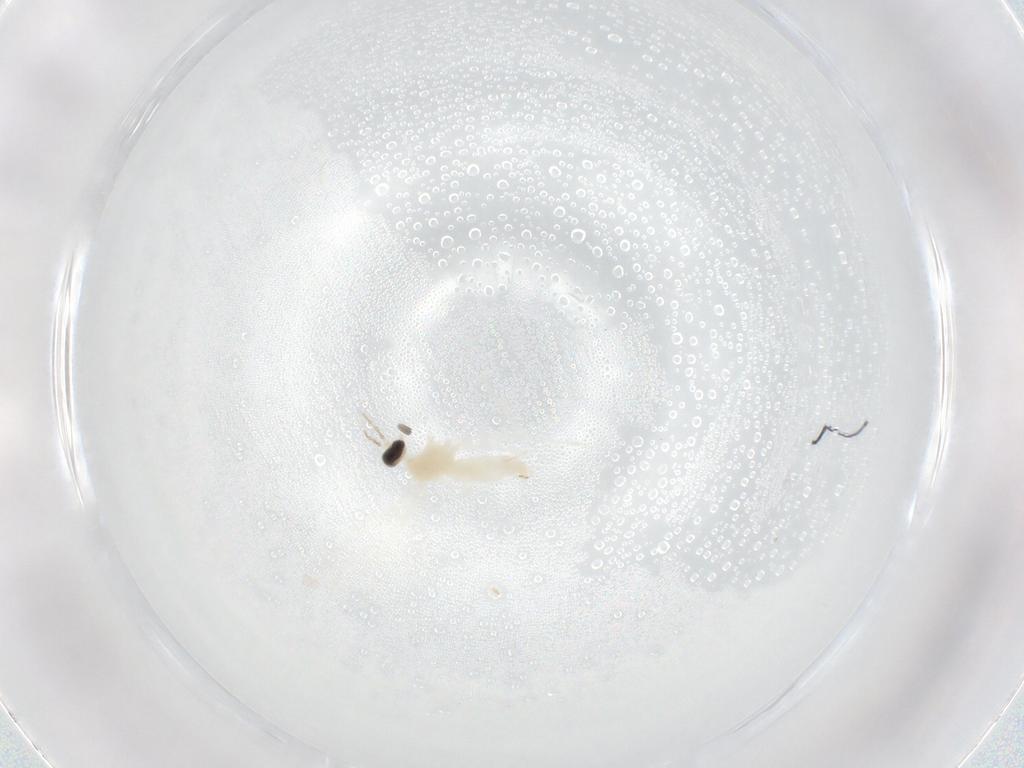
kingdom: Animalia
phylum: Arthropoda
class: Insecta
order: Diptera
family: Cecidomyiidae
